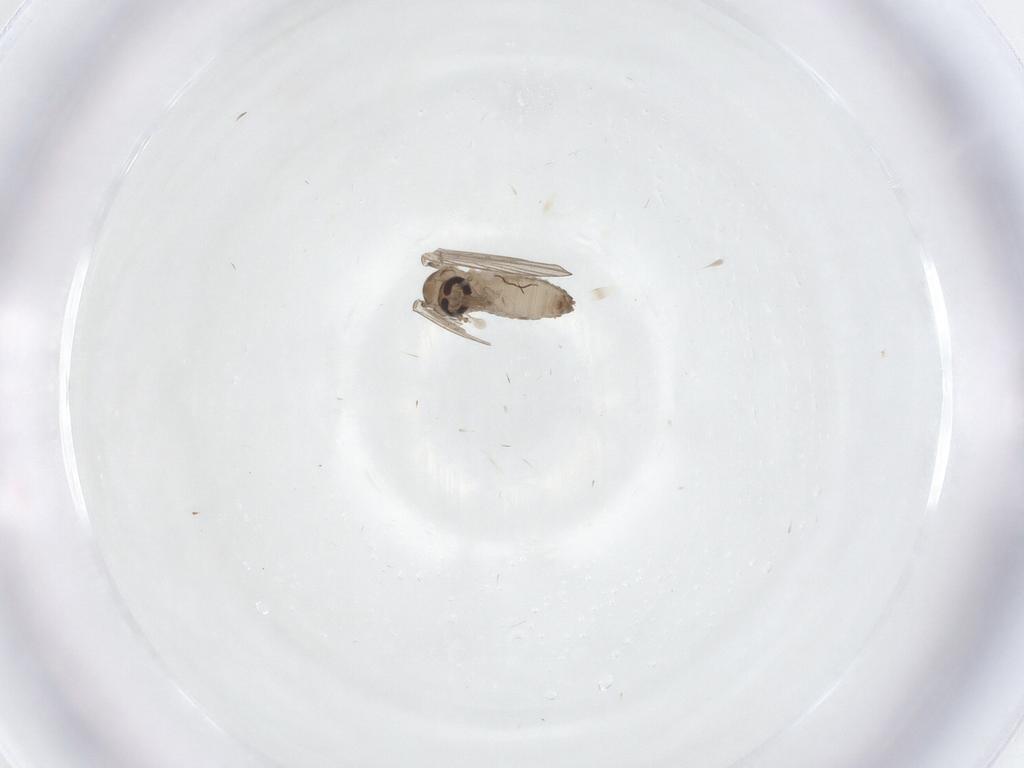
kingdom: Animalia
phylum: Arthropoda
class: Insecta
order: Diptera
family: Psychodidae
